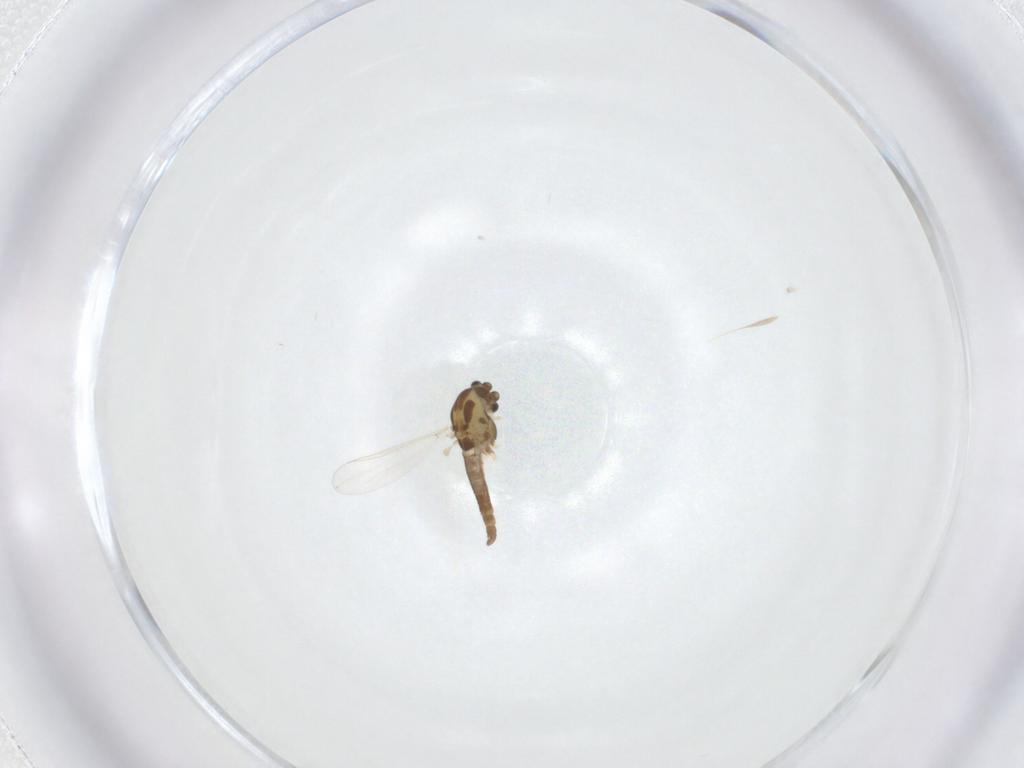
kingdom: Animalia
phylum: Arthropoda
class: Insecta
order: Diptera
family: Chironomidae
